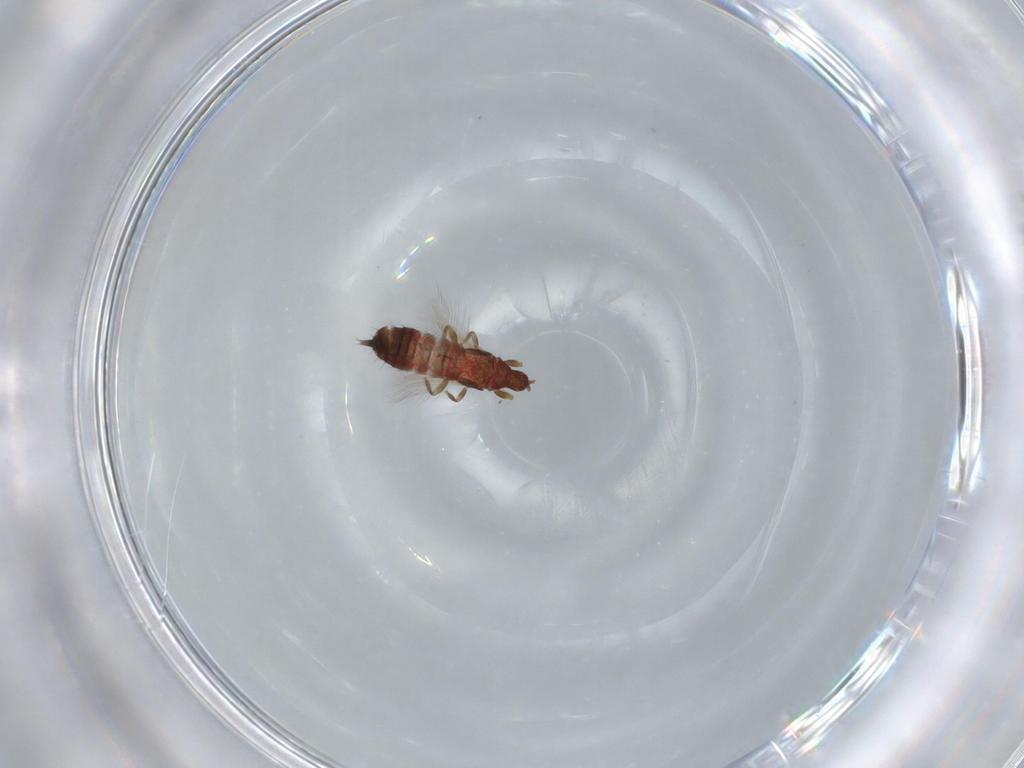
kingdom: Animalia
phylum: Arthropoda
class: Insecta
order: Thysanoptera
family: Phlaeothripidae
